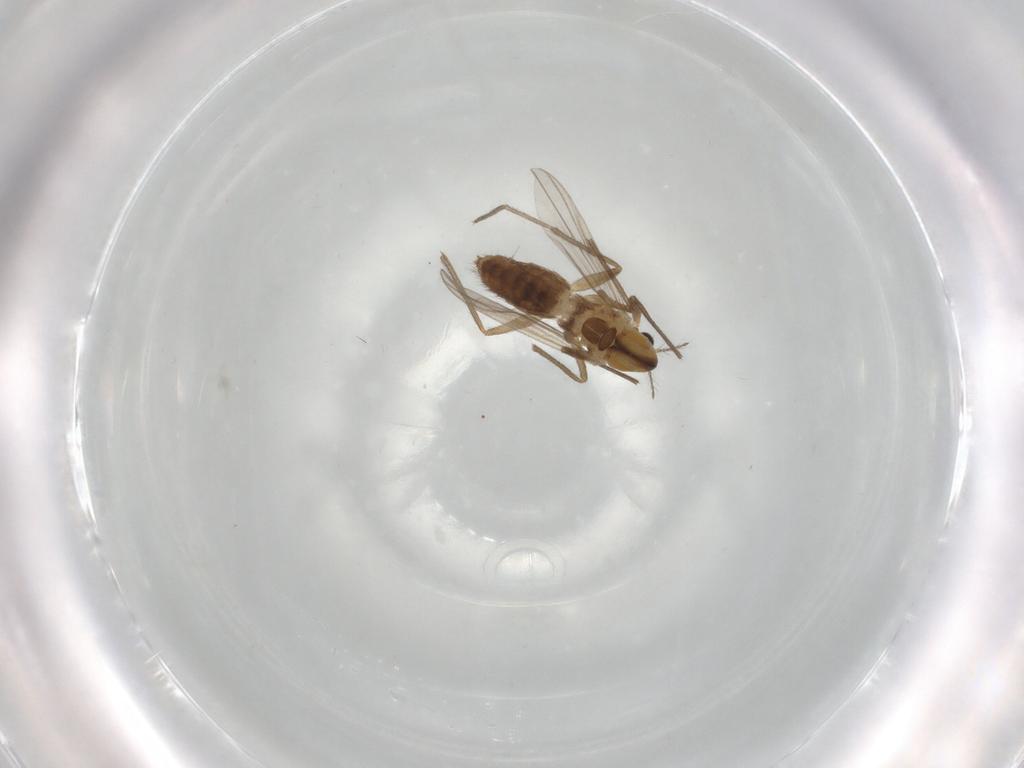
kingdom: Animalia
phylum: Arthropoda
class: Insecta
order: Diptera
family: Chironomidae
